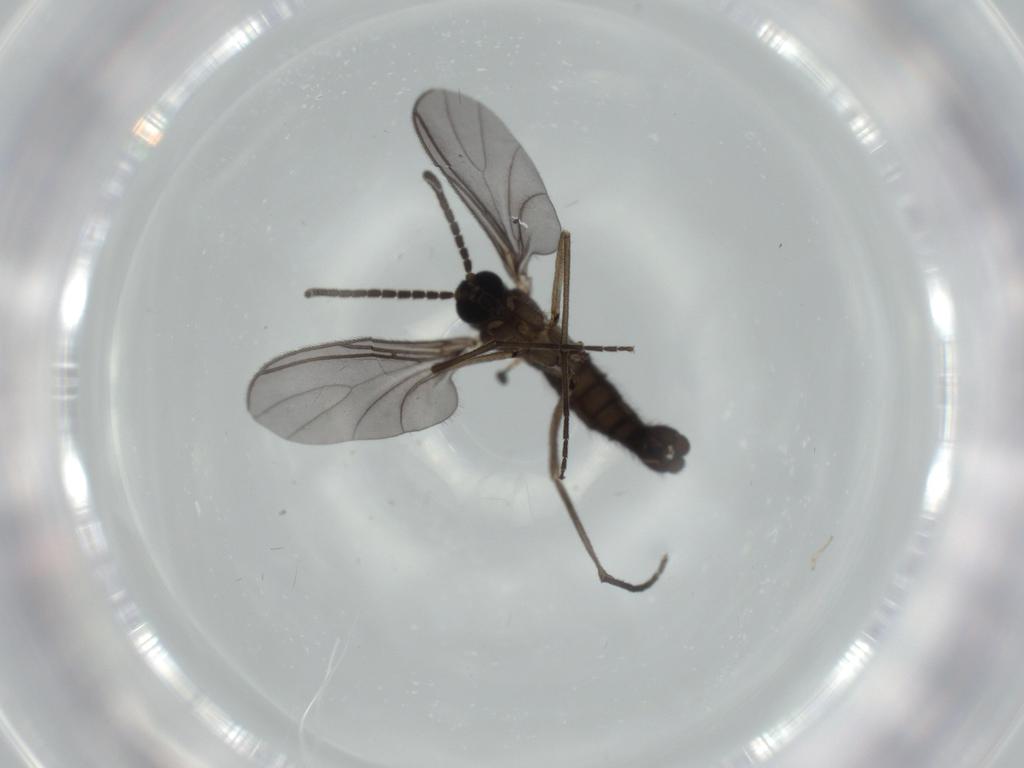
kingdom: Animalia
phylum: Arthropoda
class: Insecta
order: Diptera
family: Sciaridae
